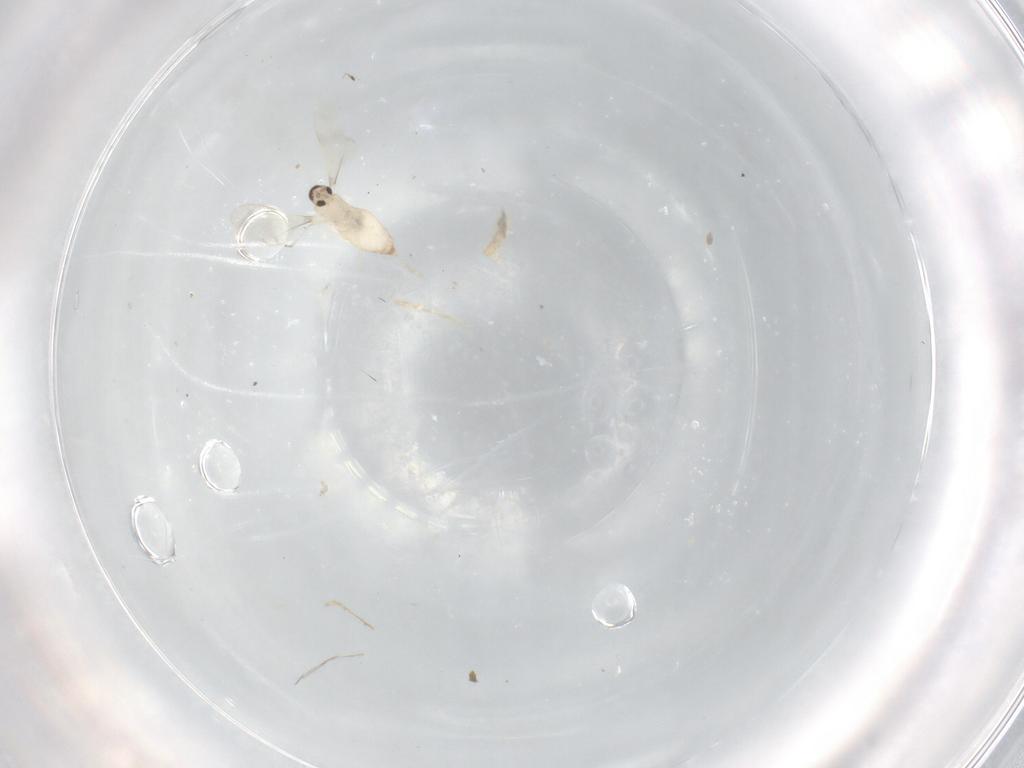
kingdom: Animalia
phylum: Arthropoda
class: Insecta
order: Diptera
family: Cecidomyiidae
